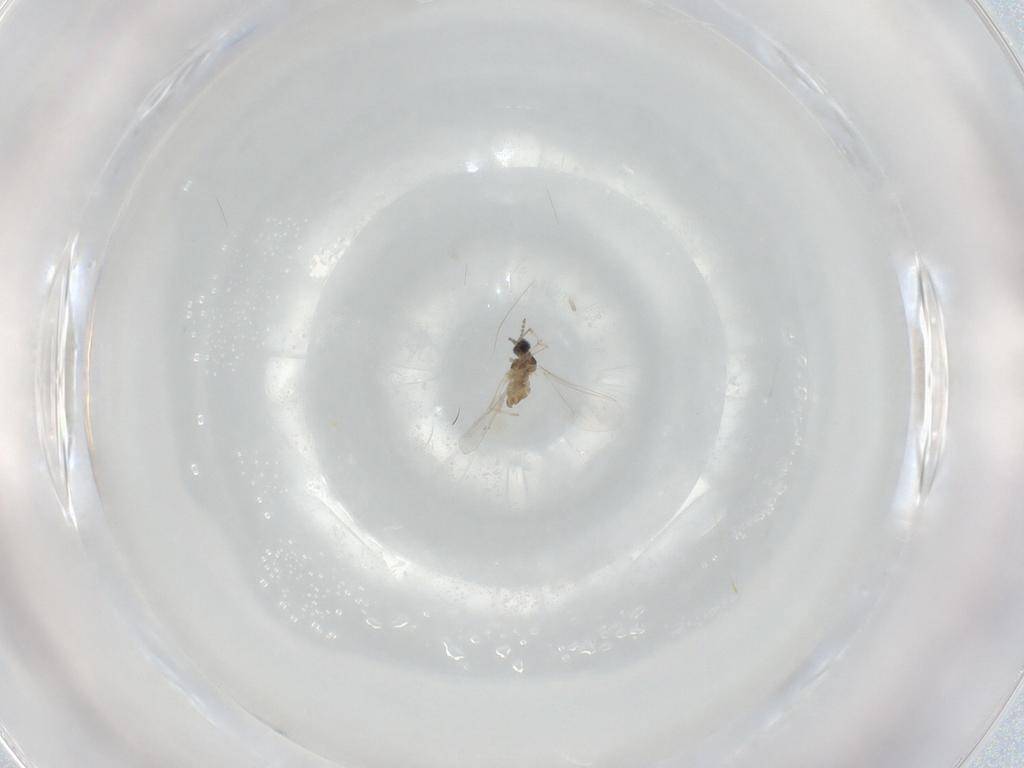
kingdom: Animalia
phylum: Arthropoda
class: Insecta
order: Diptera
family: Cecidomyiidae
